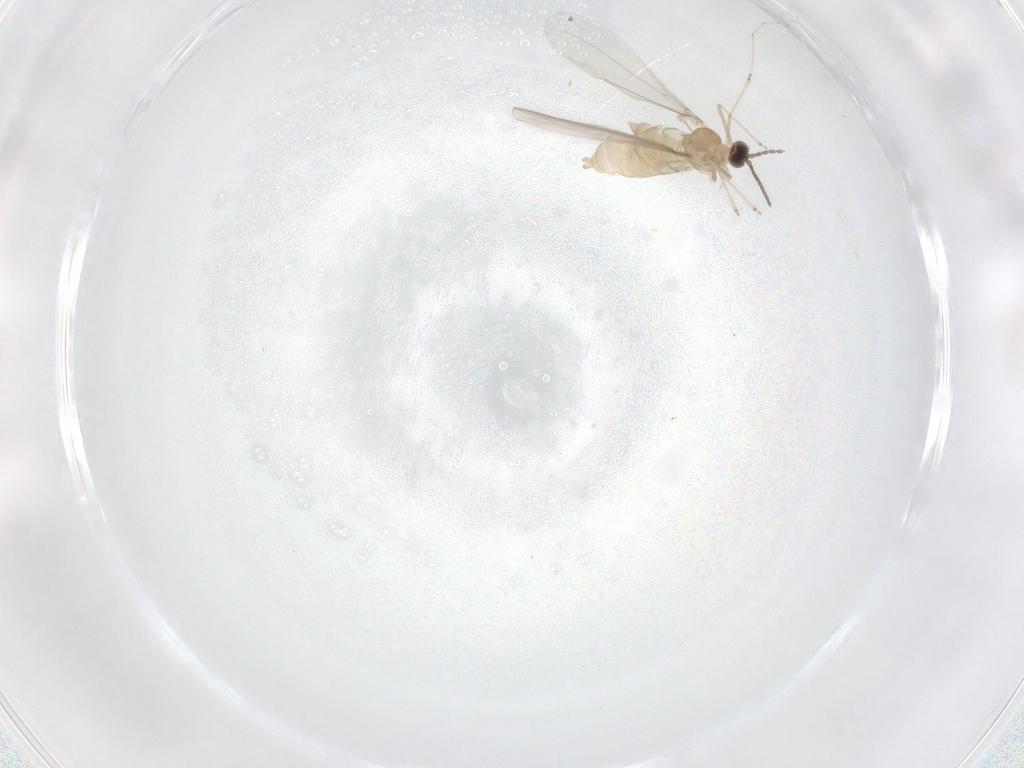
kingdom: Animalia
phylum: Arthropoda
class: Insecta
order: Diptera
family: Cecidomyiidae
